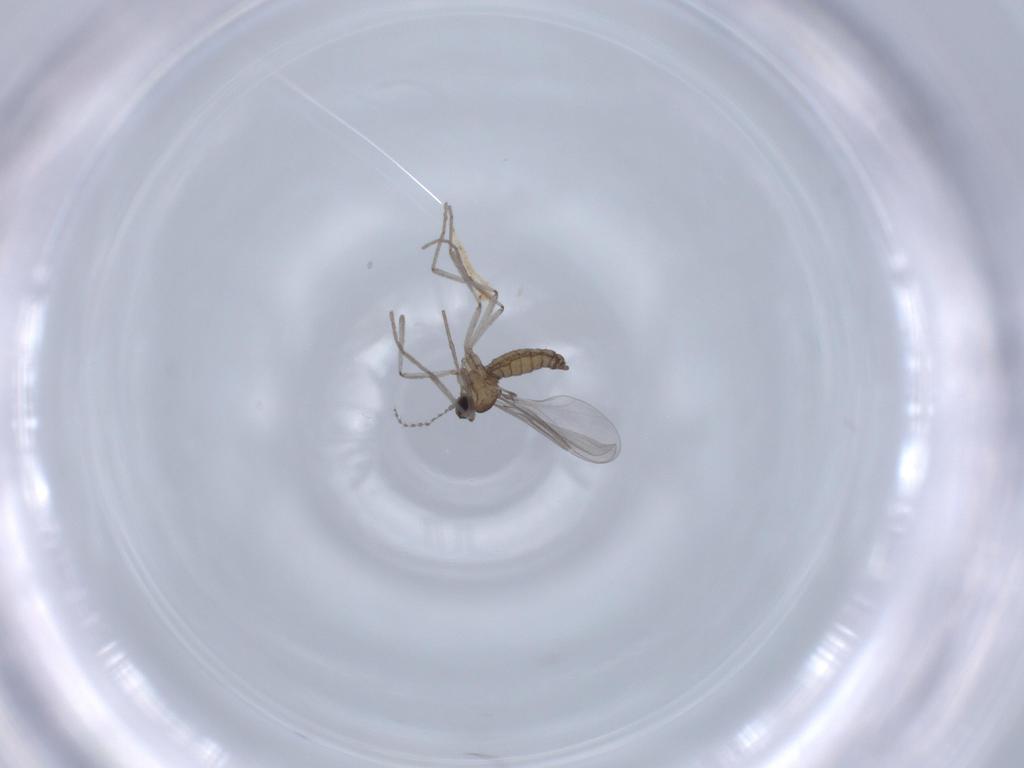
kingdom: Animalia
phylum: Arthropoda
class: Insecta
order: Diptera
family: Cecidomyiidae
